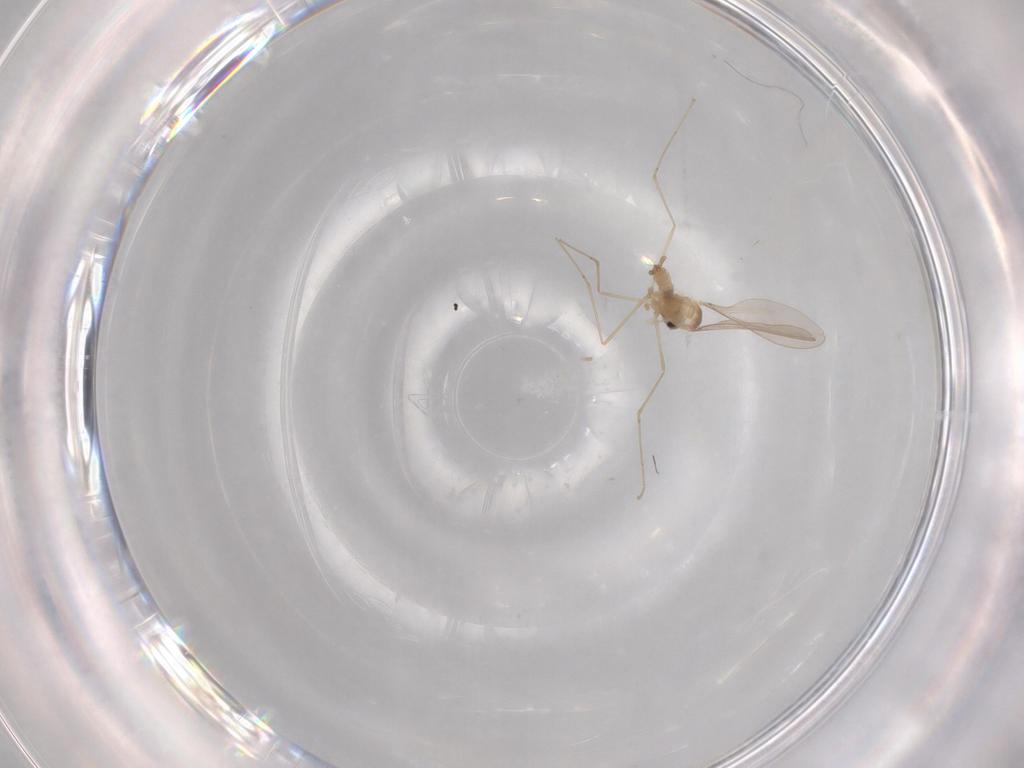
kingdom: Animalia
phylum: Arthropoda
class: Insecta
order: Diptera
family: Cecidomyiidae
